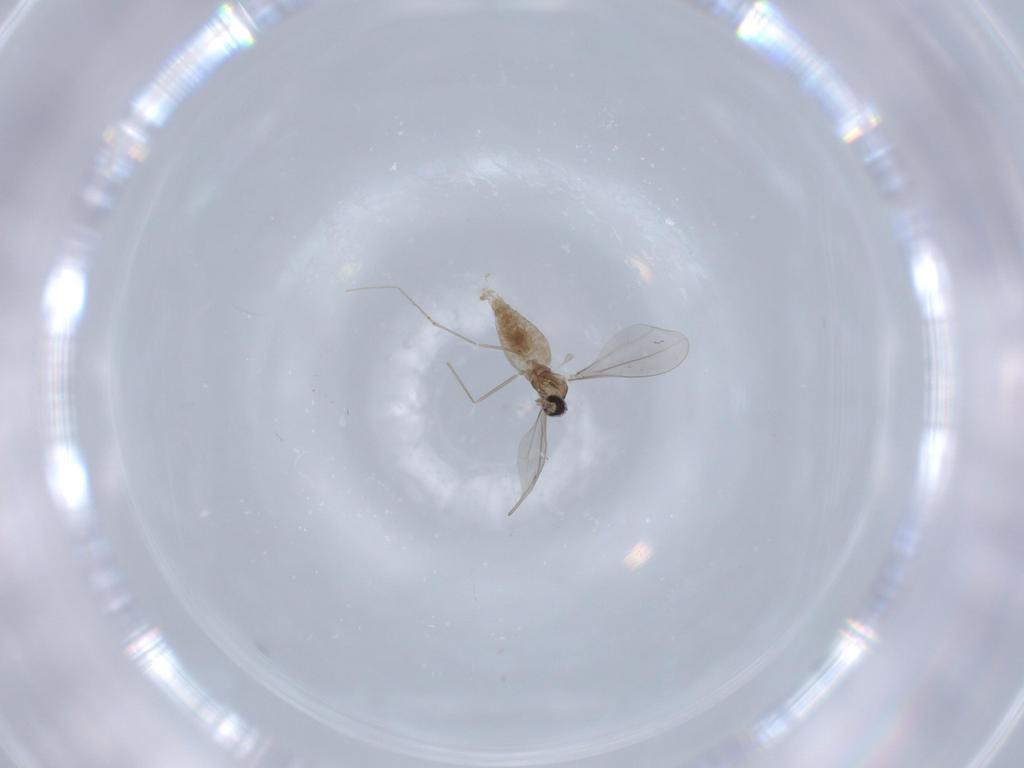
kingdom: Animalia
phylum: Arthropoda
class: Insecta
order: Diptera
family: Cecidomyiidae
